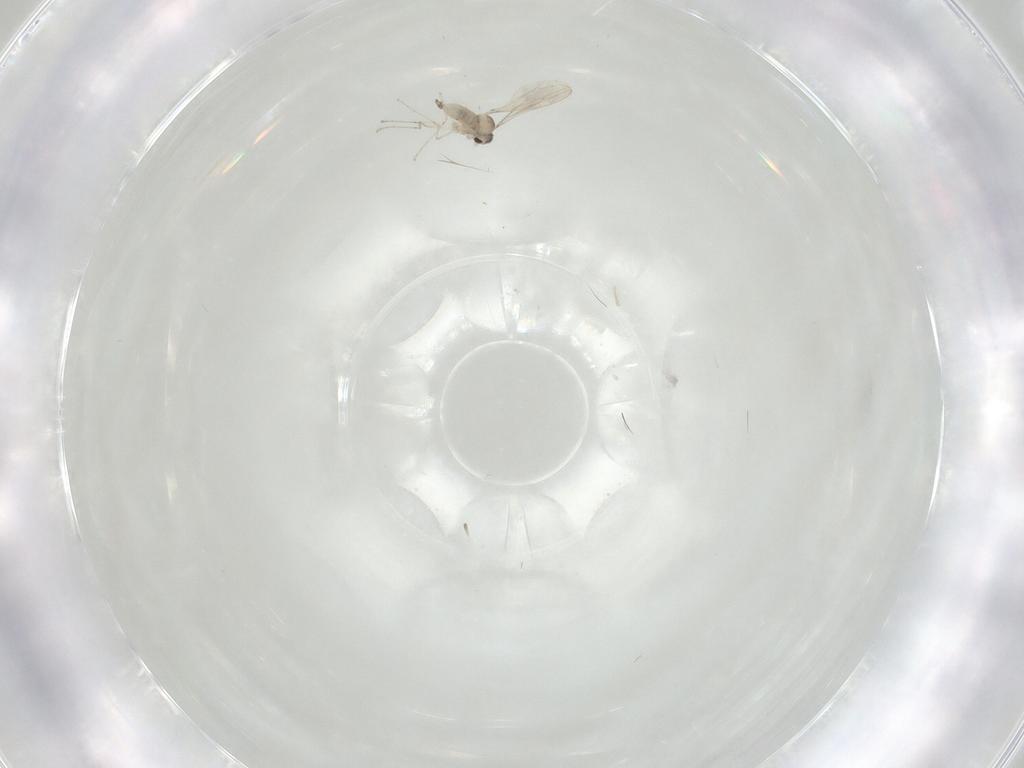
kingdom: Animalia
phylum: Arthropoda
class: Insecta
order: Diptera
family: Cecidomyiidae
